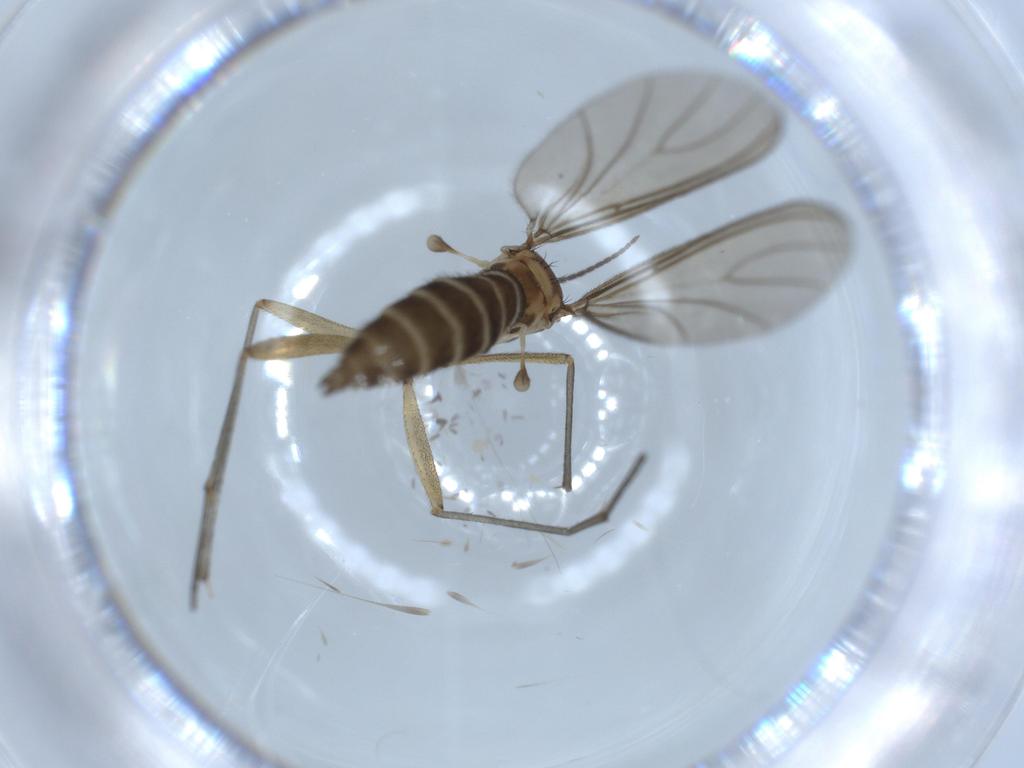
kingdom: Animalia
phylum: Arthropoda
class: Insecta
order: Diptera
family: Sciaridae
